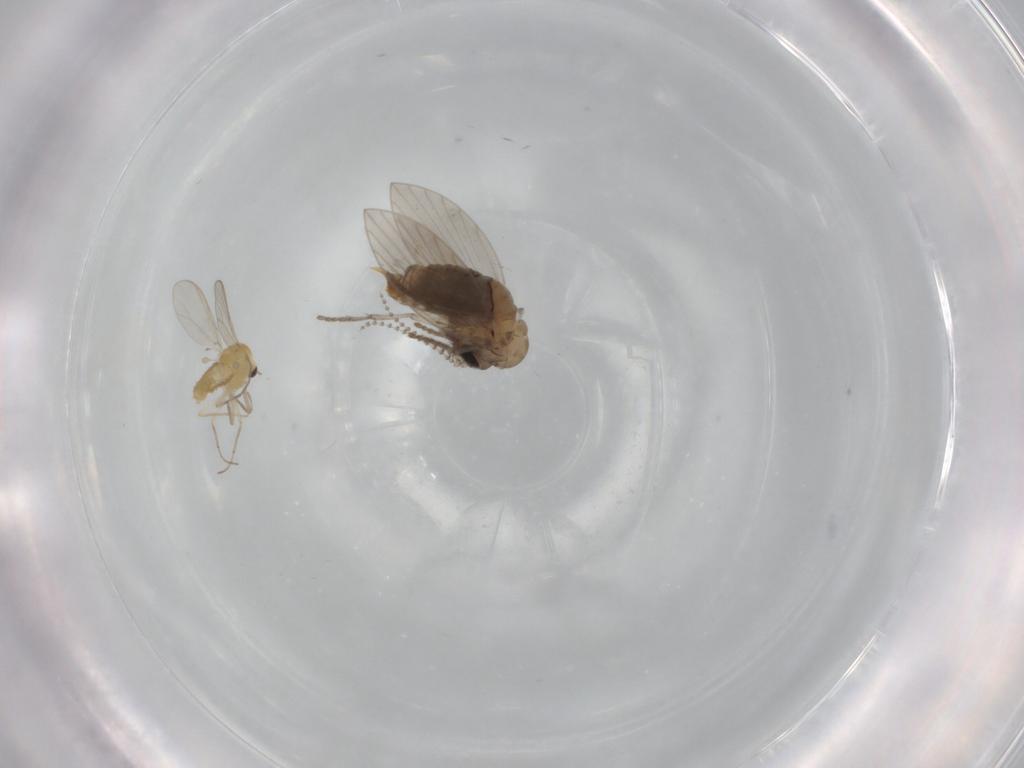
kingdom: Animalia
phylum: Arthropoda
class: Insecta
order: Diptera
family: Psychodidae
